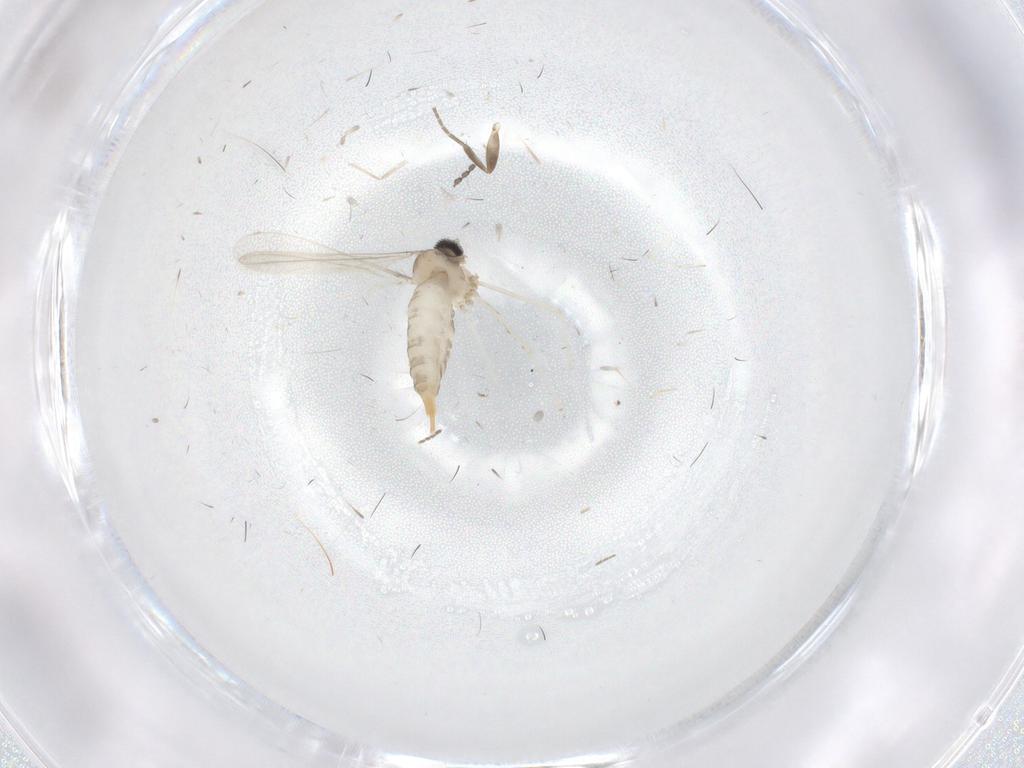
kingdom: Animalia
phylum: Arthropoda
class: Insecta
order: Diptera
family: Cecidomyiidae
